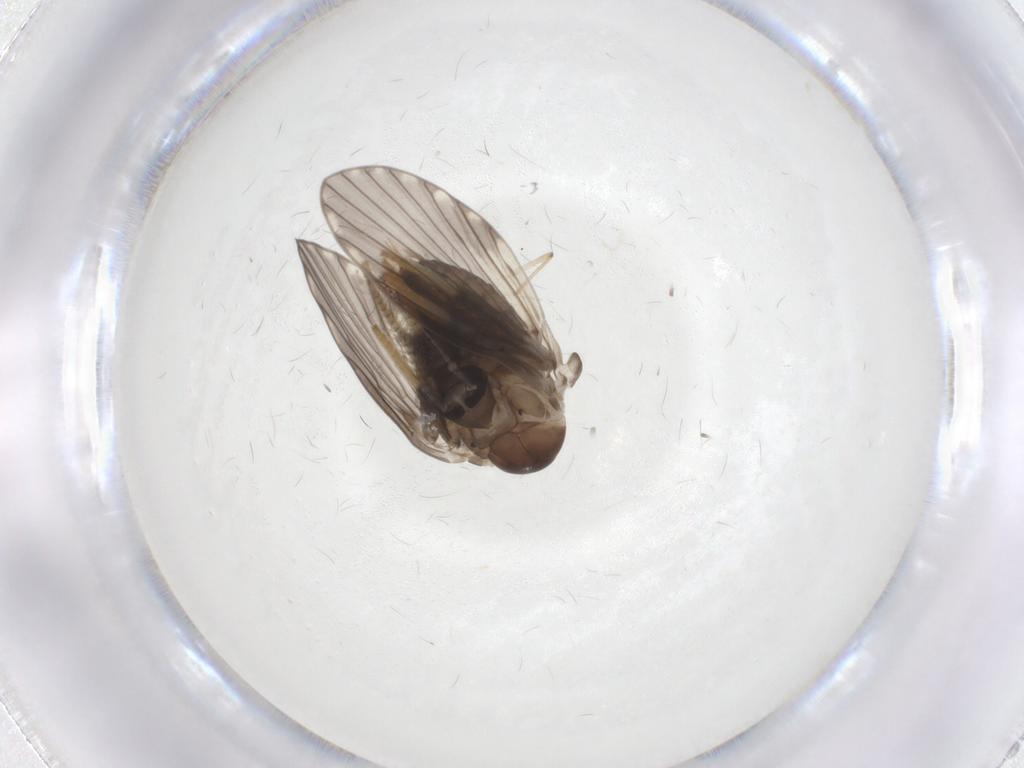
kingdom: Animalia
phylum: Arthropoda
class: Insecta
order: Diptera
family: Psychodidae
